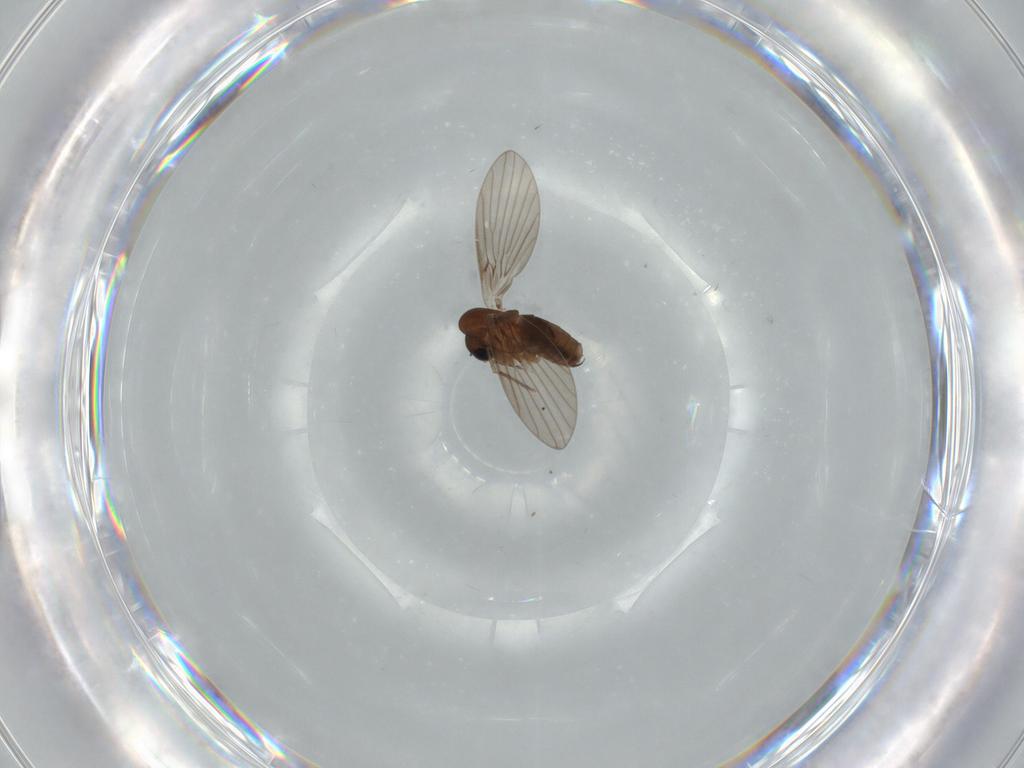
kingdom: Animalia
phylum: Arthropoda
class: Insecta
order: Diptera
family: Psychodidae
